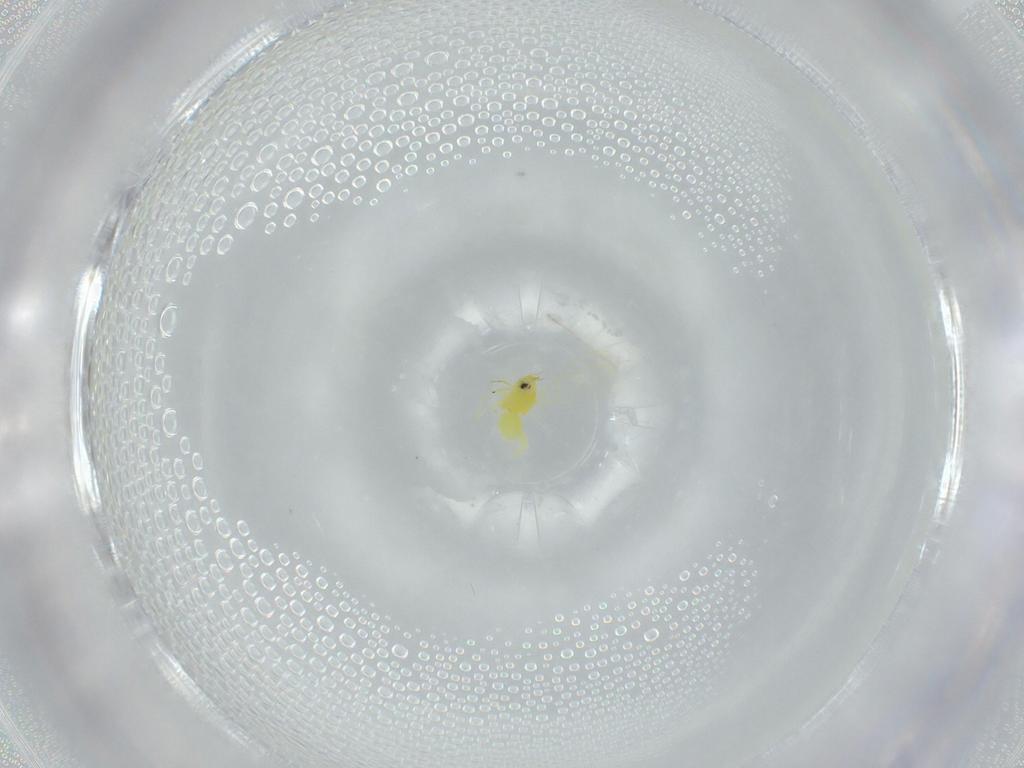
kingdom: Animalia
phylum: Arthropoda
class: Insecta
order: Hemiptera
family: Aleyrodidae
